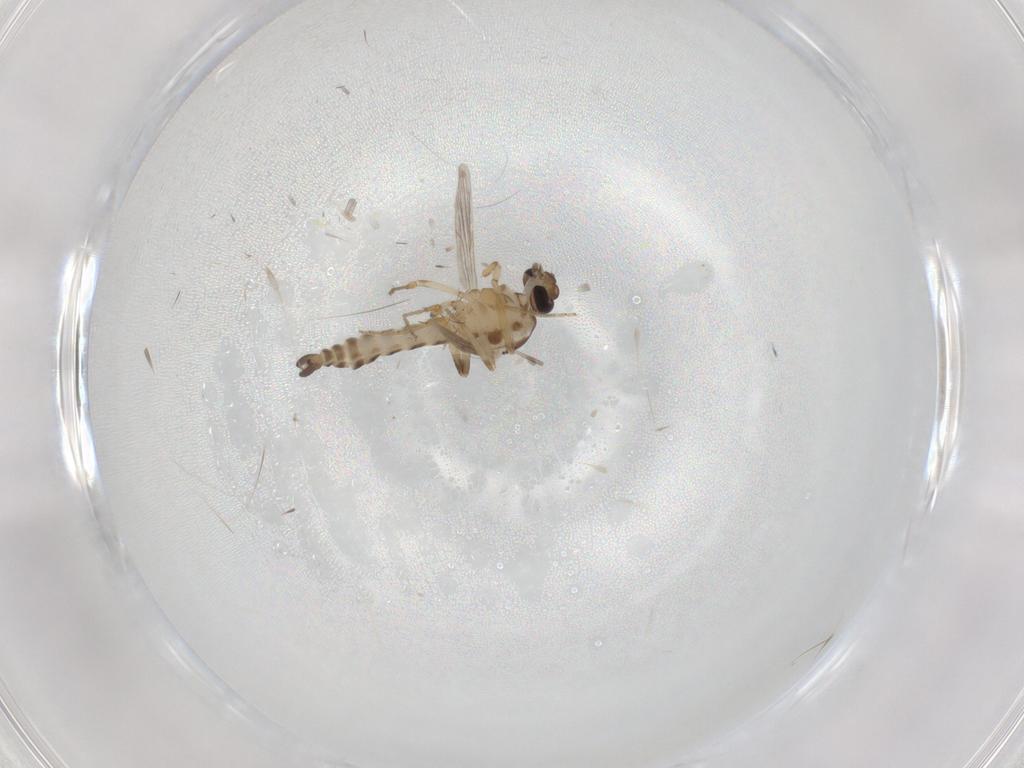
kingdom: Animalia
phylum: Arthropoda
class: Insecta
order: Diptera
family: Ceratopogonidae
